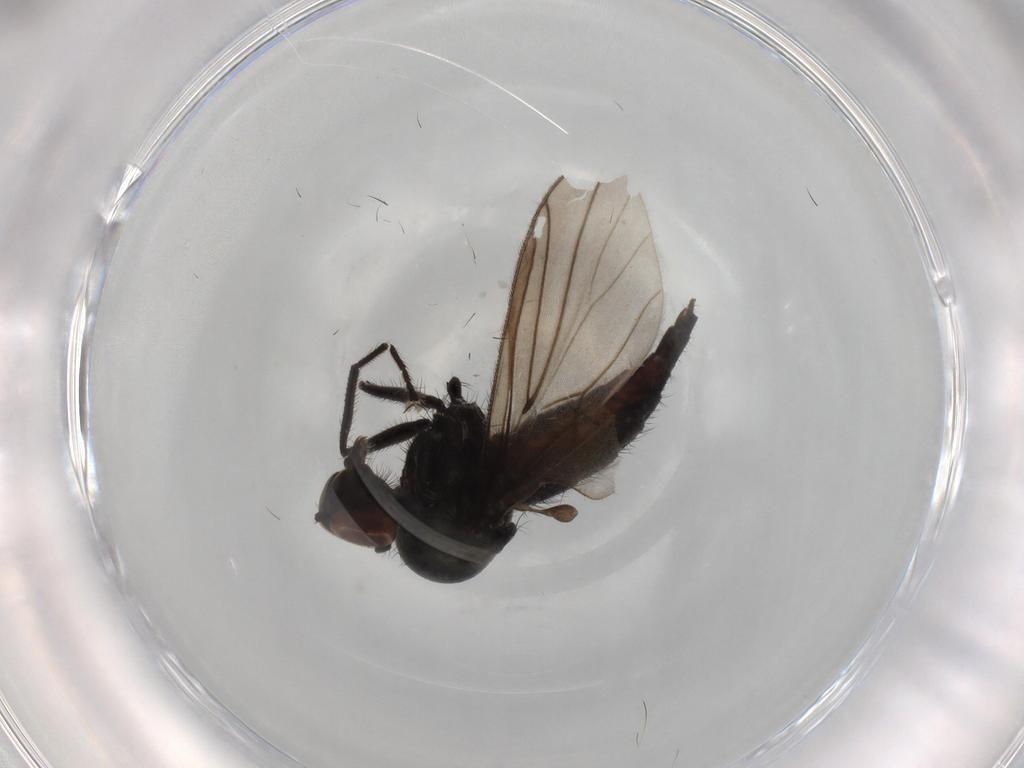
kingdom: Animalia
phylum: Arthropoda
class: Insecta
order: Diptera
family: Hybotidae
